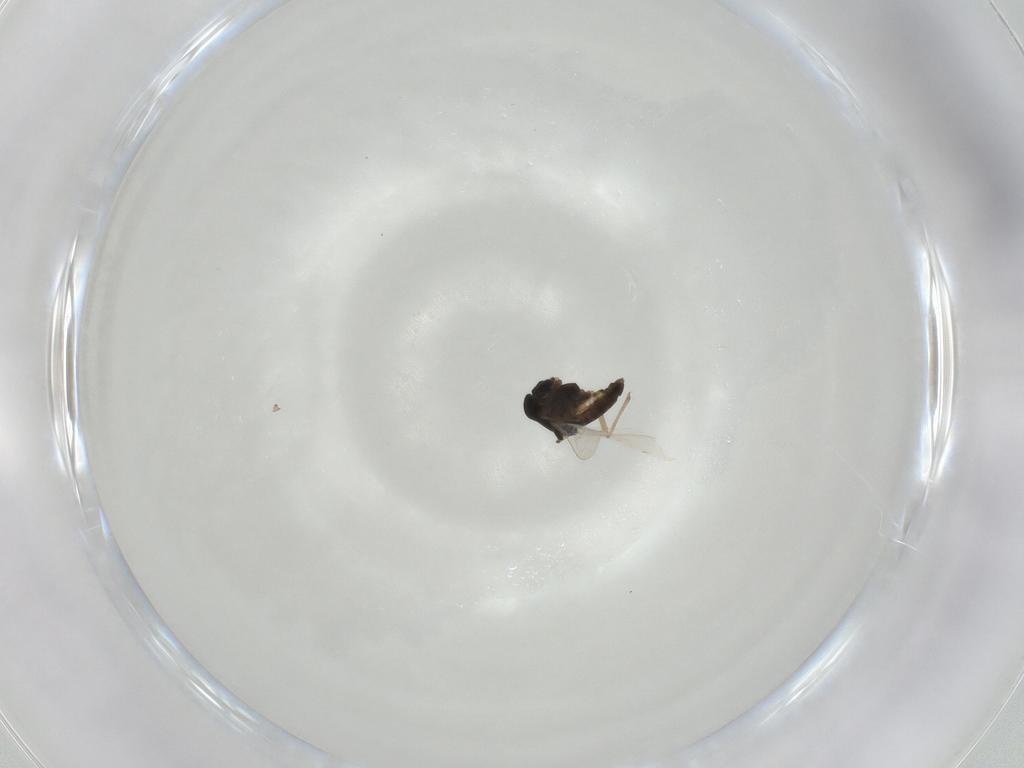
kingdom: Animalia
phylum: Arthropoda
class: Insecta
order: Diptera
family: Chironomidae
